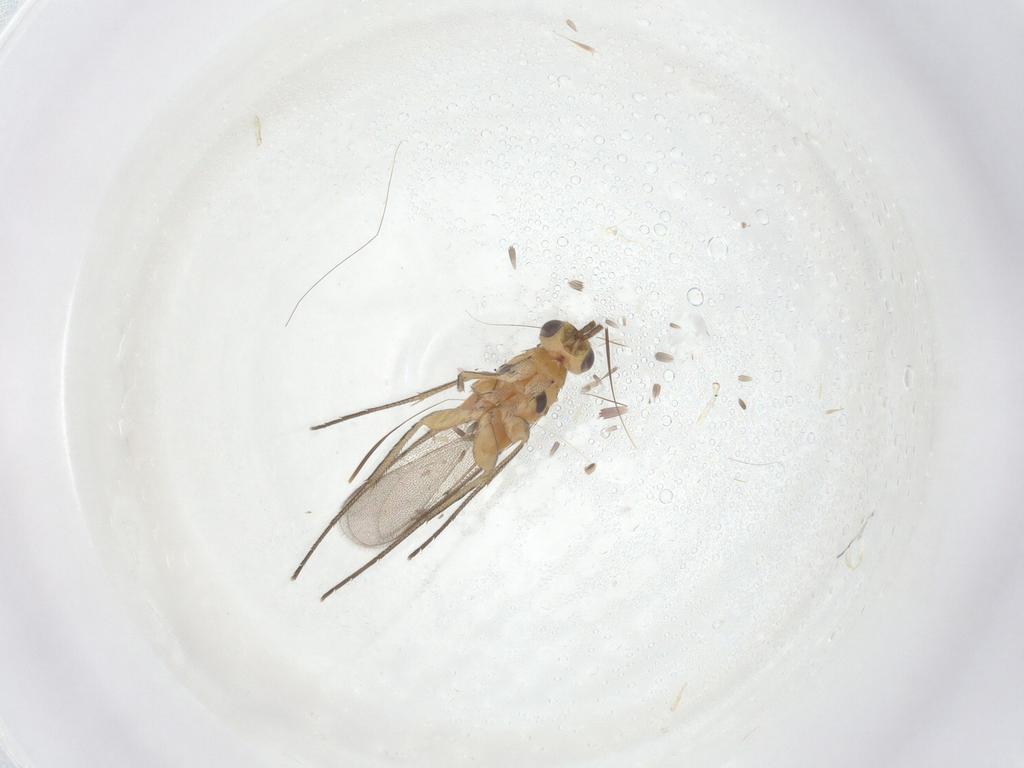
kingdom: Animalia
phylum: Arthropoda
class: Insecta
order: Hymenoptera
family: Eulophidae
